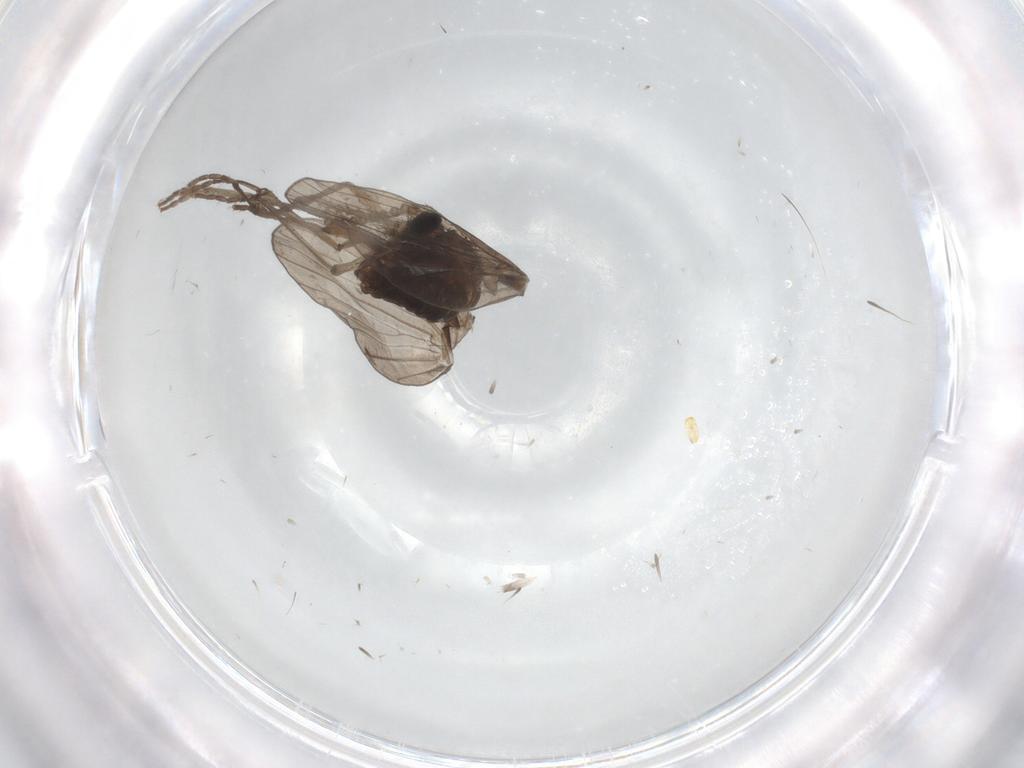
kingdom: Animalia
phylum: Arthropoda
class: Insecta
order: Diptera
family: Psychodidae
